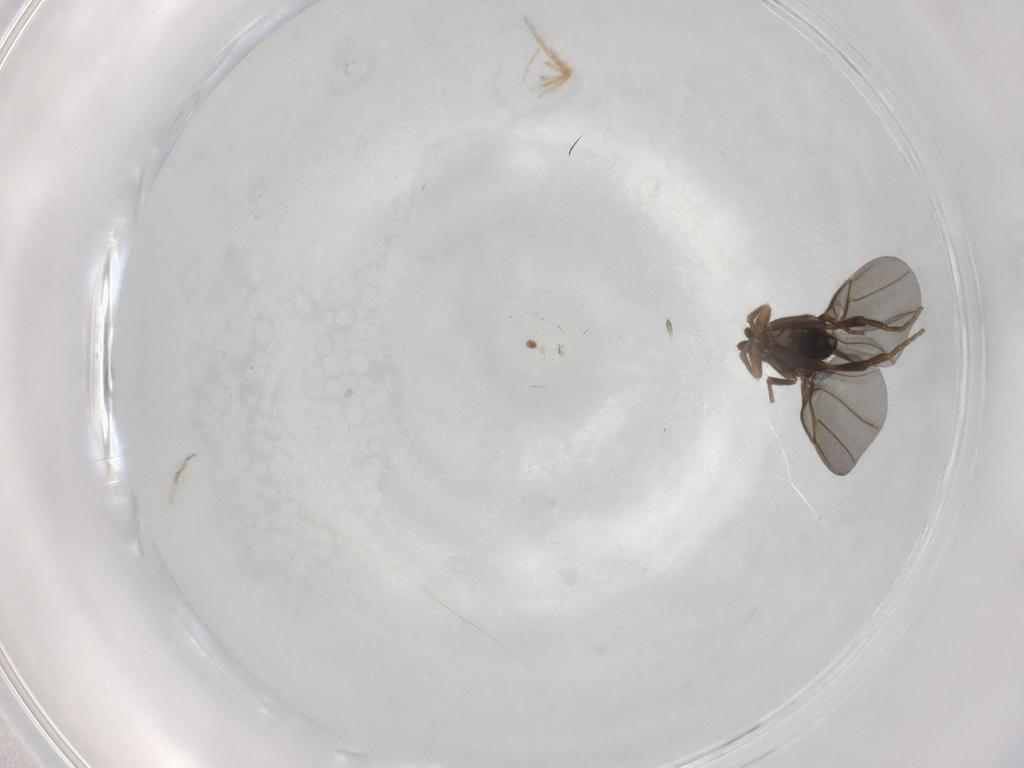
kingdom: Animalia
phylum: Arthropoda
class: Insecta
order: Diptera
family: Phoridae
